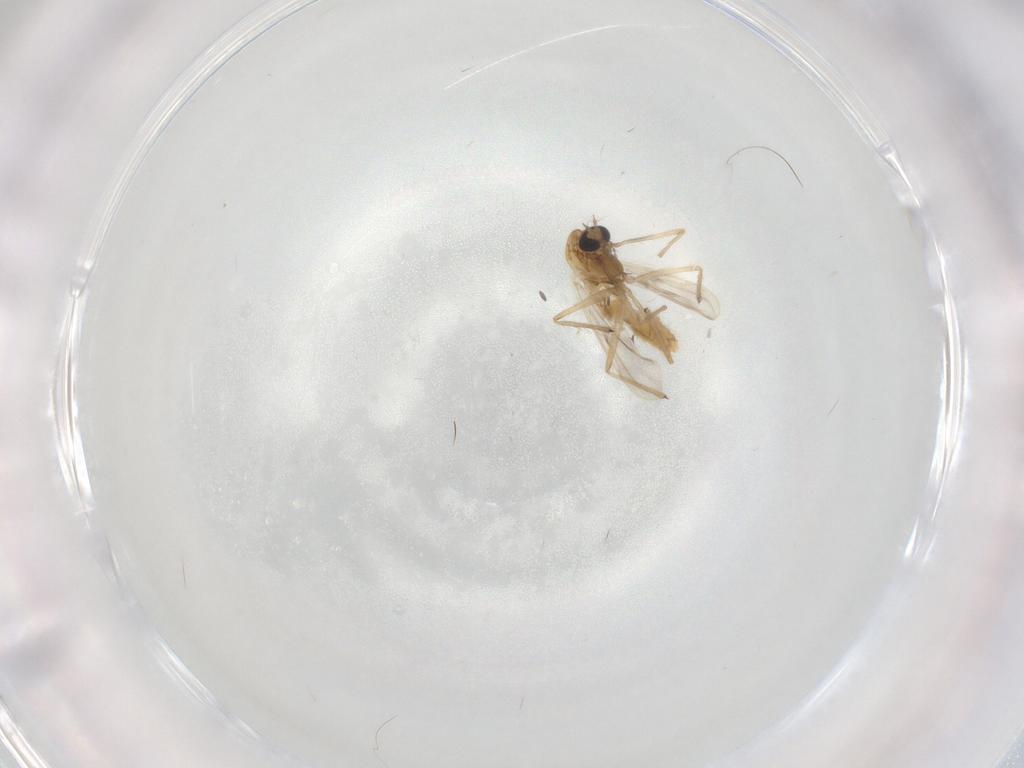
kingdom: Animalia
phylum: Arthropoda
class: Insecta
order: Diptera
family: Chironomidae
